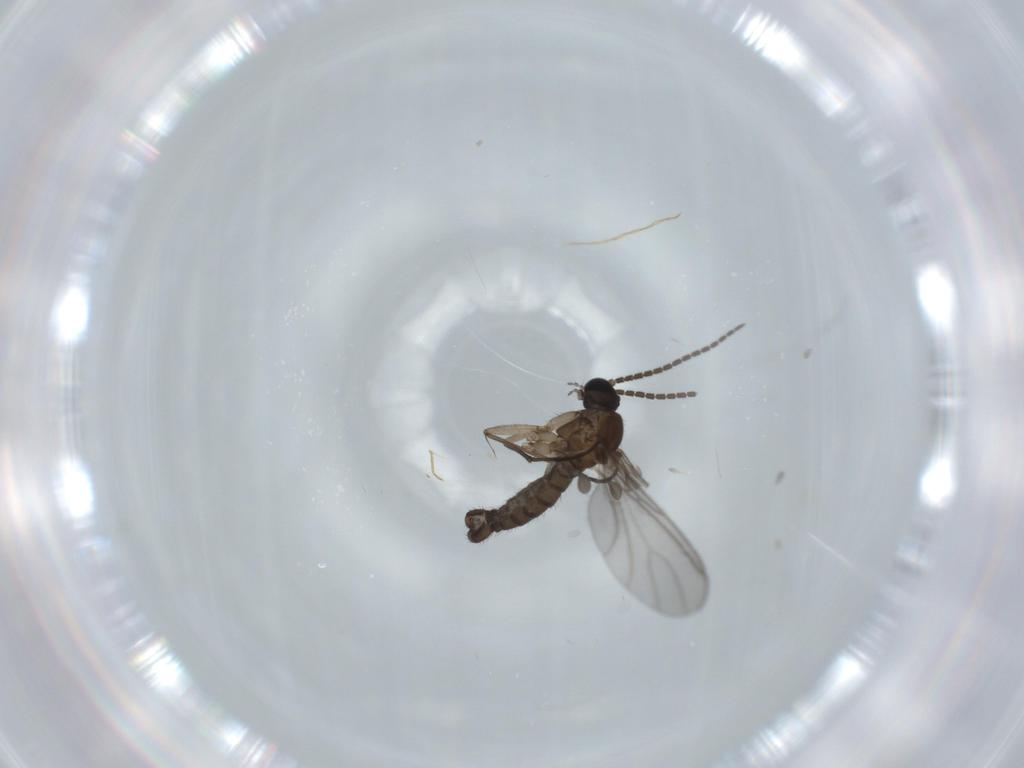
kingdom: Animalia
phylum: Arthropoda
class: Insecta
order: Diptera
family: Sciaridae
